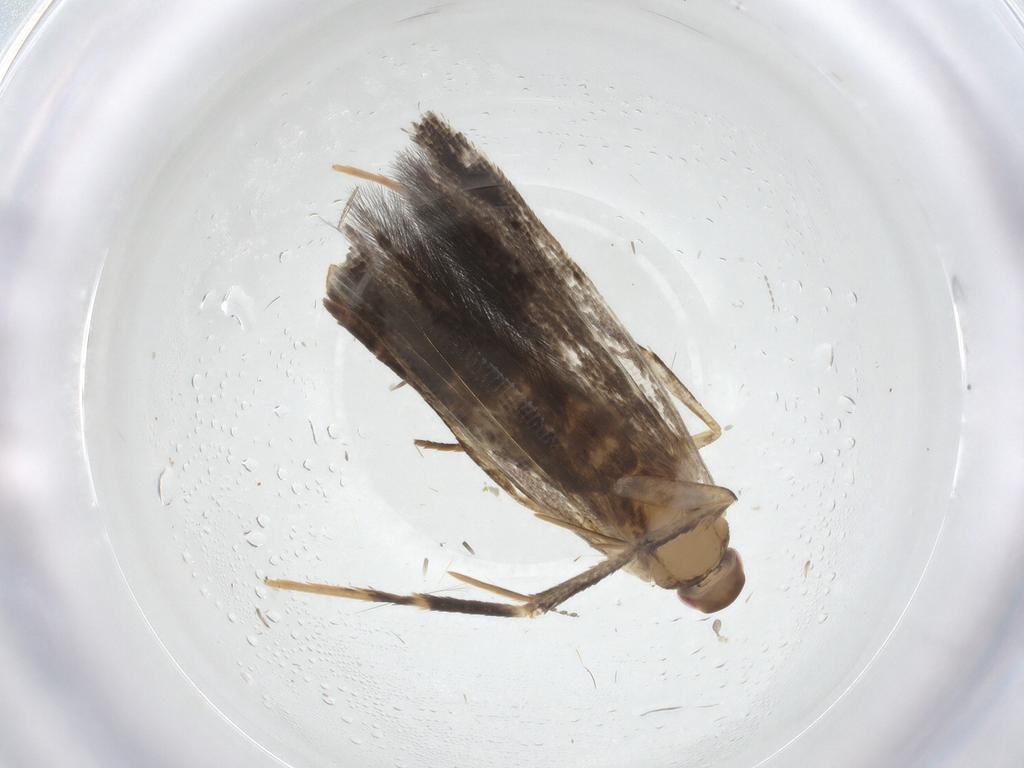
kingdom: Animalia
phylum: Arthropoda
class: Insecta
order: Lepidoptera
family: Cosmopterigidae
